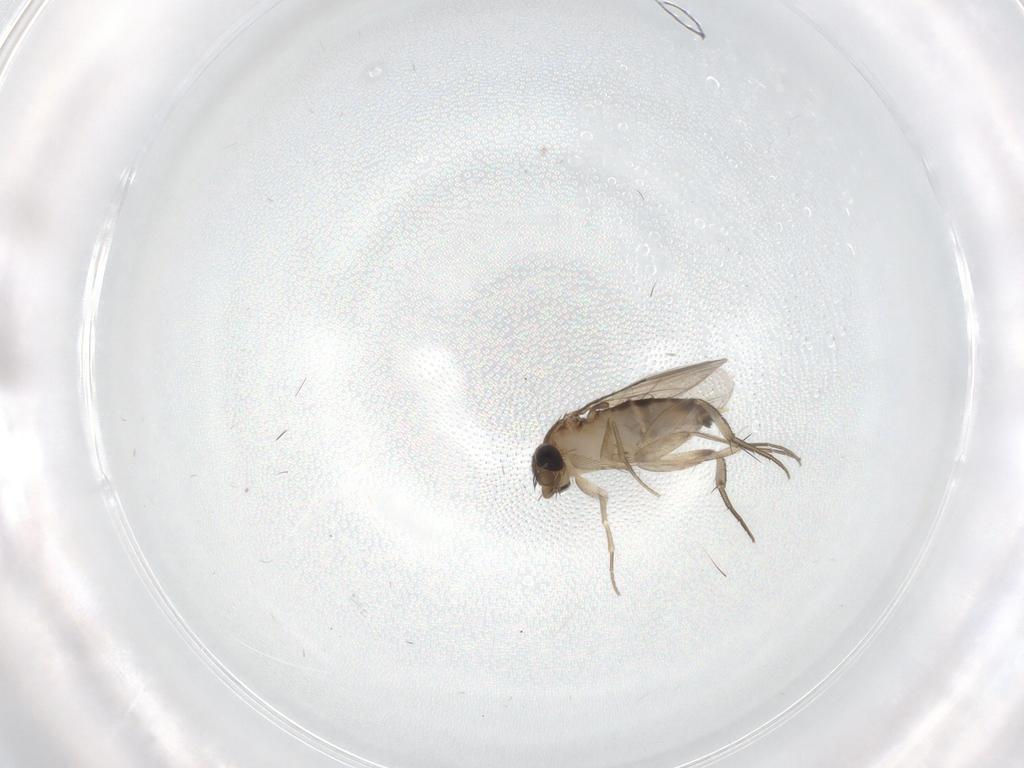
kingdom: Animalia
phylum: Arthropoda
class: Insecta
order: Diptera
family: Phoridae
